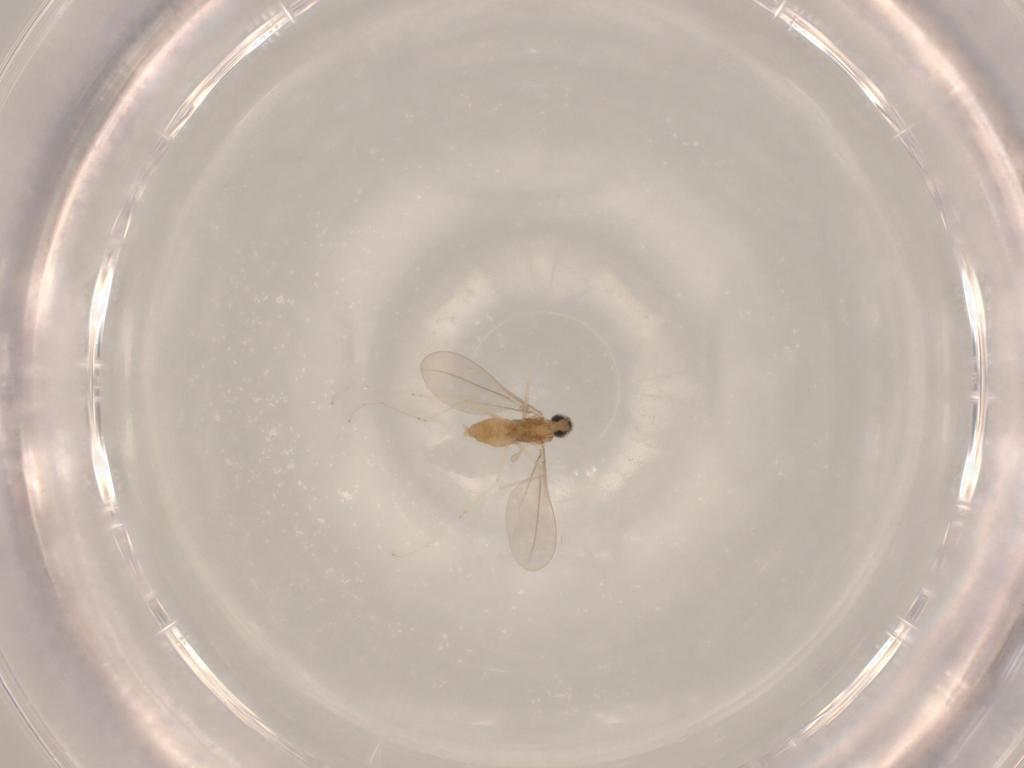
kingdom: Animalia
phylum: Arthropoda
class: Insecta
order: Diptera
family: Cecidomyiidae
